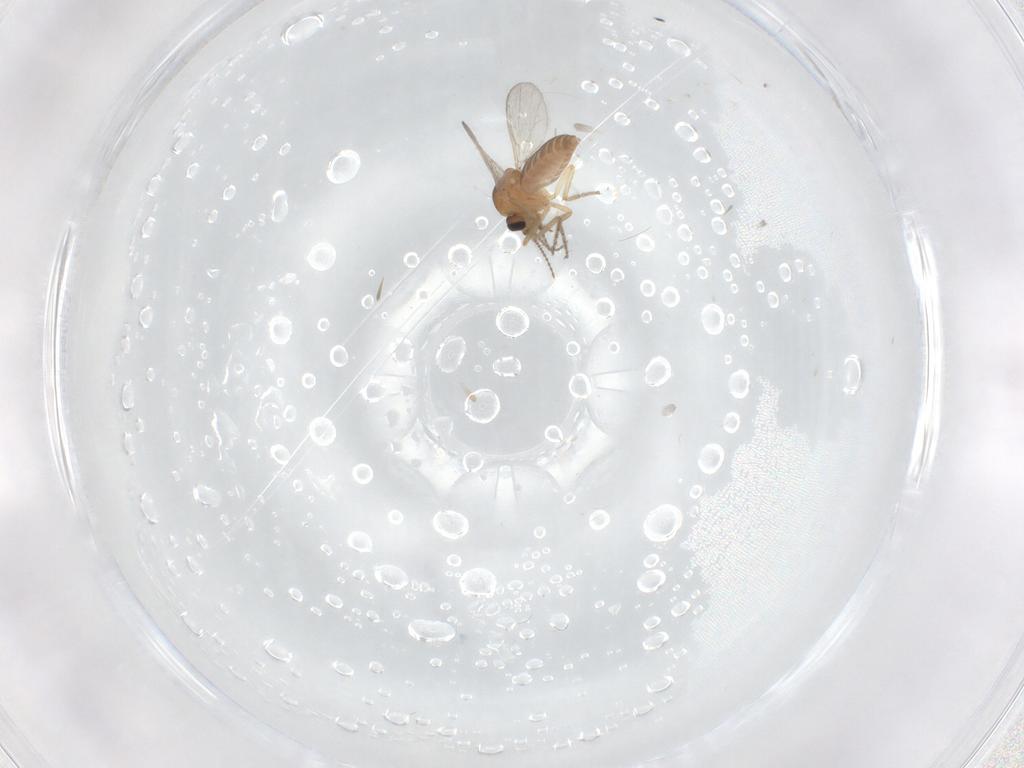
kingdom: Animalia
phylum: Arthropoda
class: Insecta
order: Diptera
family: Ceratopogonidae
